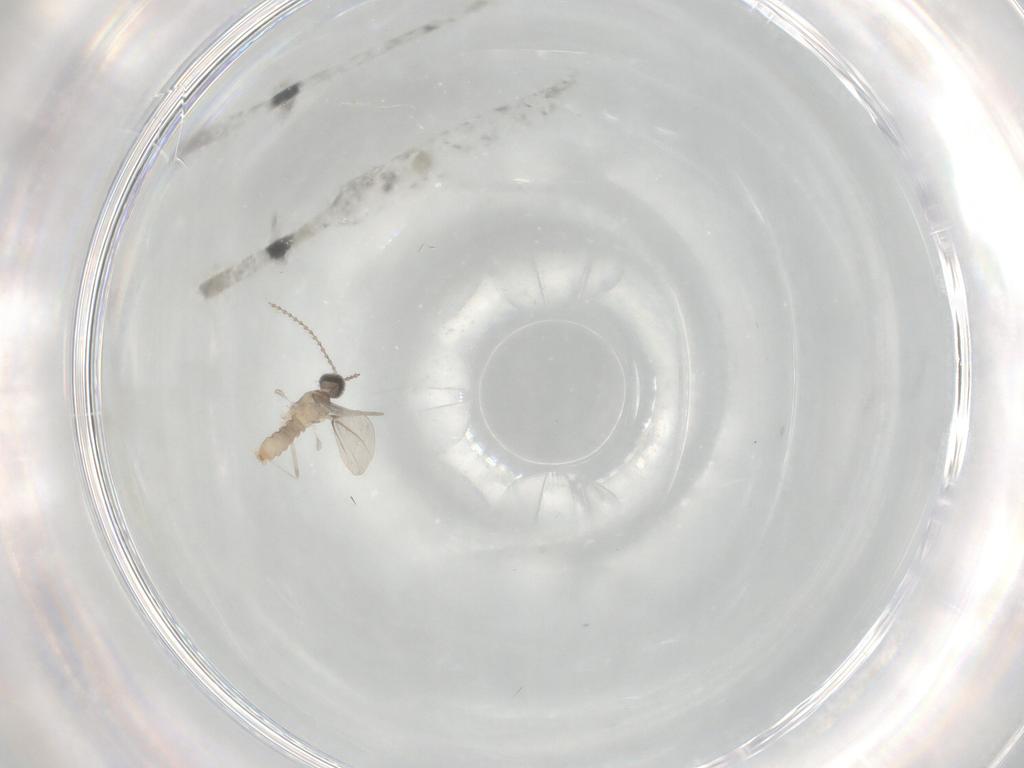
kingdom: Animalia
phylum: Arthropoda
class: Insecta
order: Diptera
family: Cecidomyiidae
